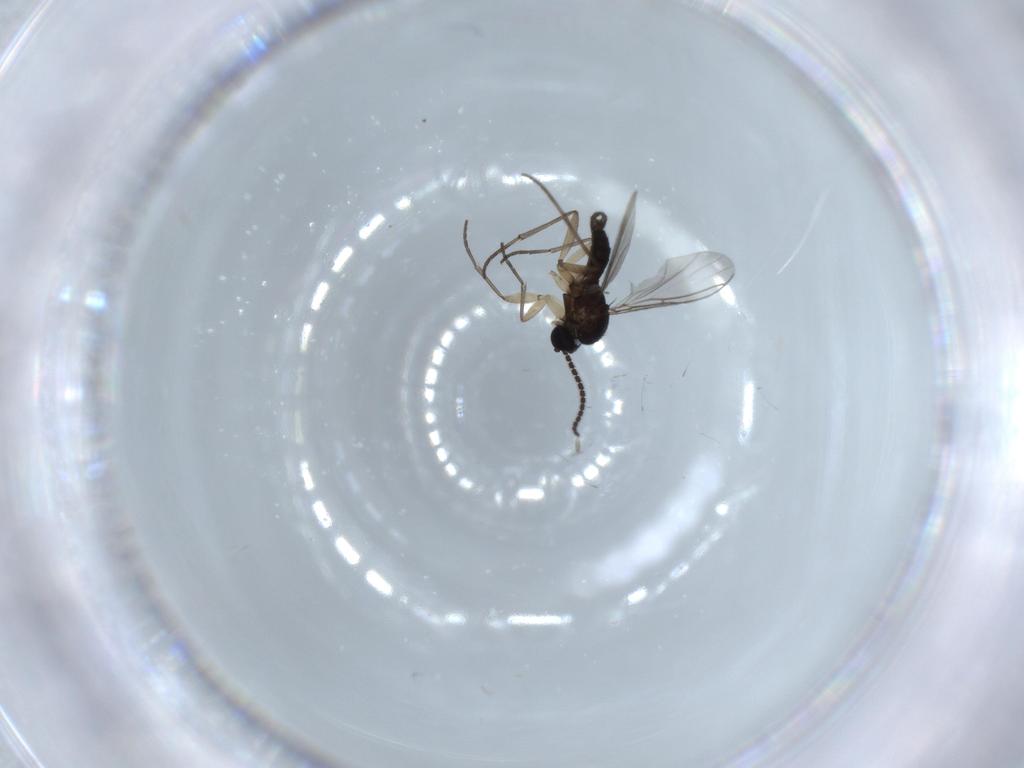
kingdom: Animalia
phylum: Arthropoda
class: Insecta
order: Diptera
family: Sciaridae
